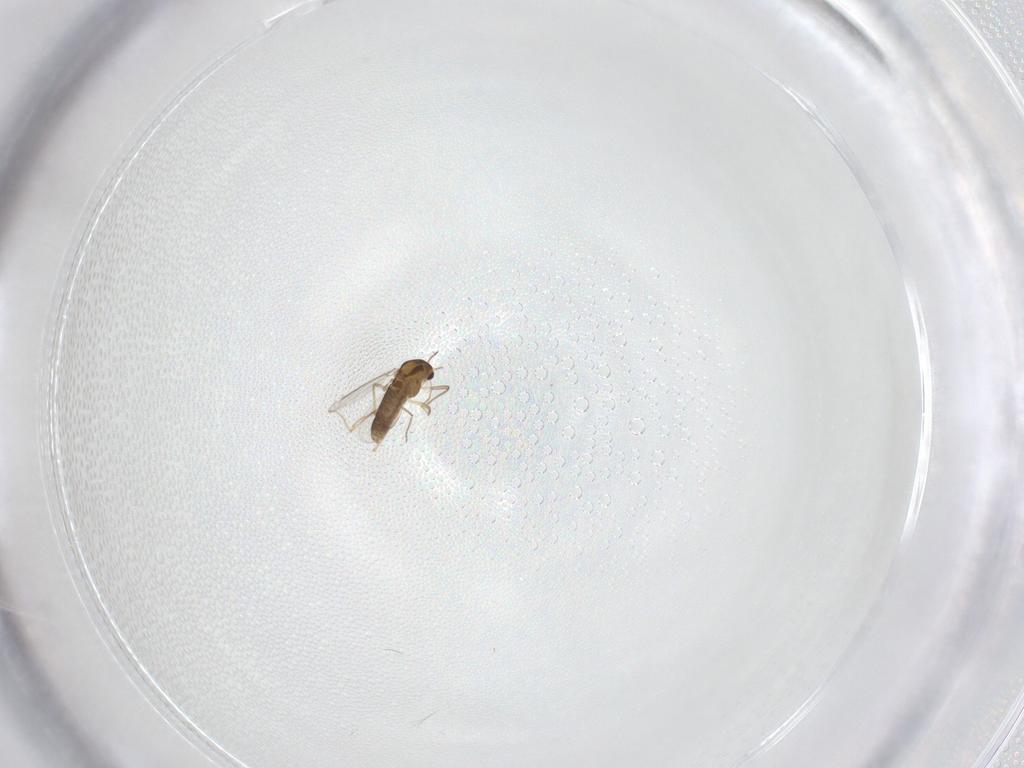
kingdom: Animalia
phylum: Arthropoda
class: Insecta
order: Diptera
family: Chironomidae
